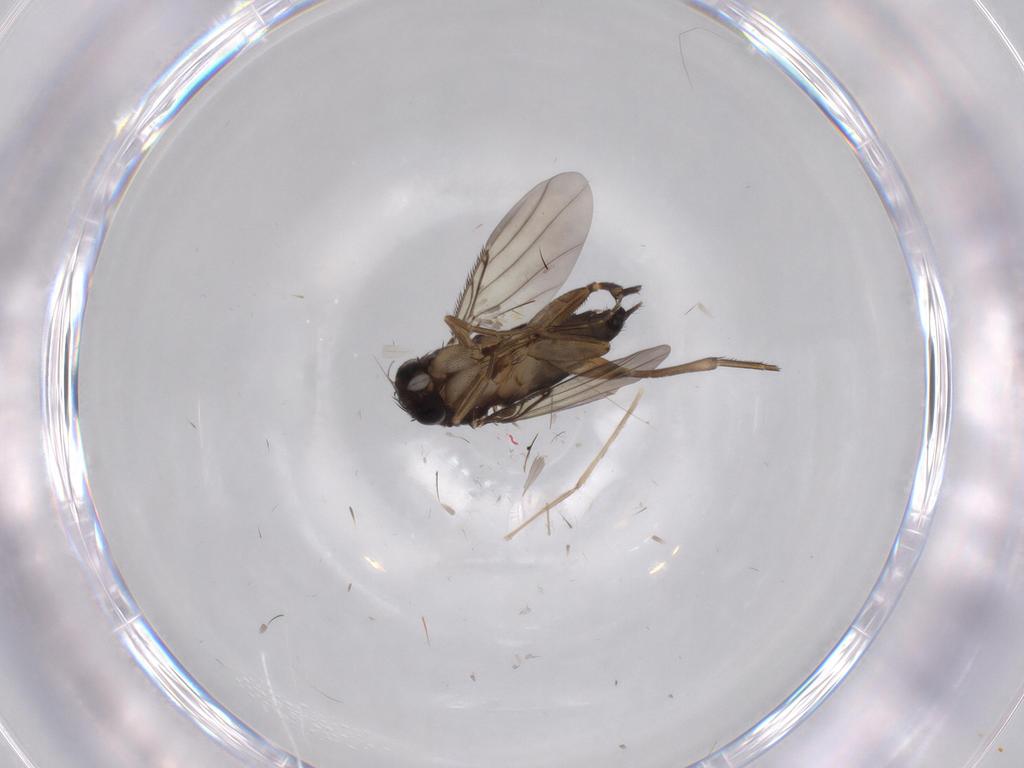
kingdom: Animalia
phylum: Arthropoda
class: Insecta
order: Diptera
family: Phoridae
